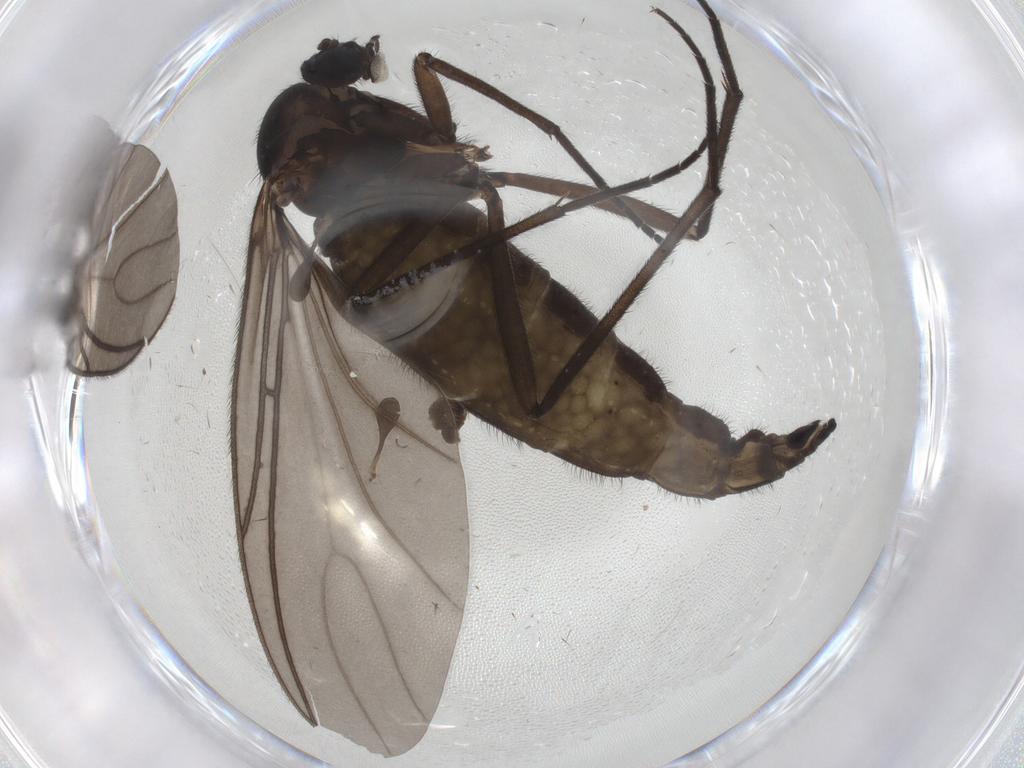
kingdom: Animalia
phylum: Arthropoda
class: Insecta
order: Diptera
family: Sciaridae
